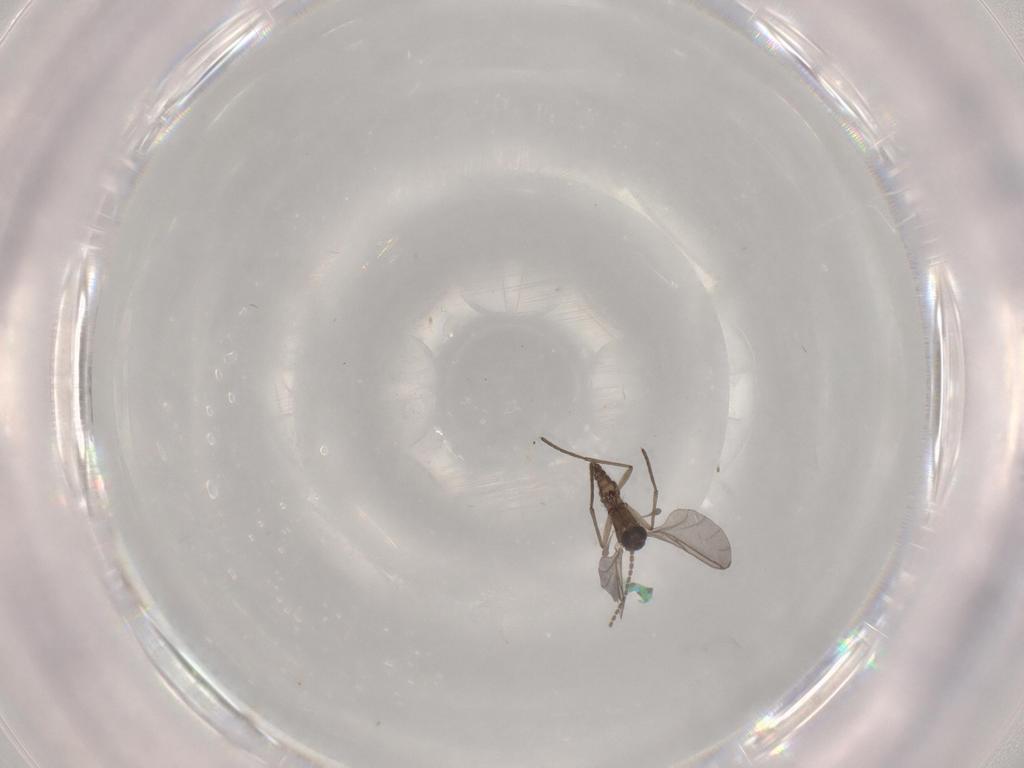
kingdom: Animalia
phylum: Arthropoda
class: Insecta
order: Diptera
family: Sciaridae
